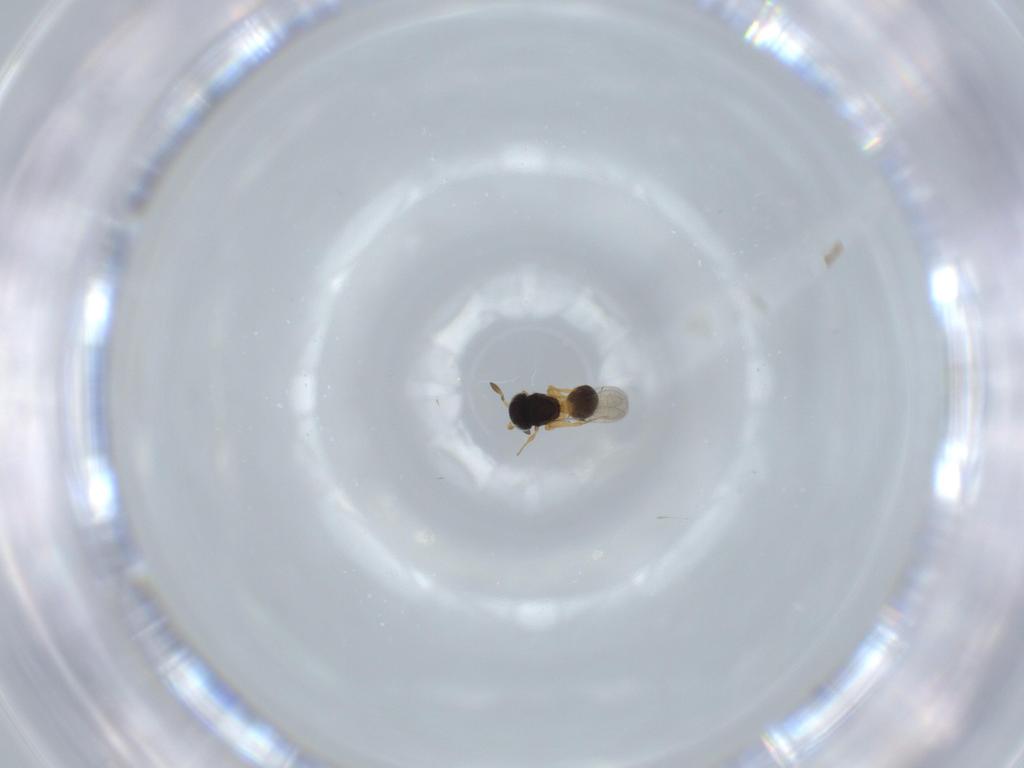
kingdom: Animalia
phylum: Arthropoda
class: Insecta
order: Hymenoptera
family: Scelionidae
